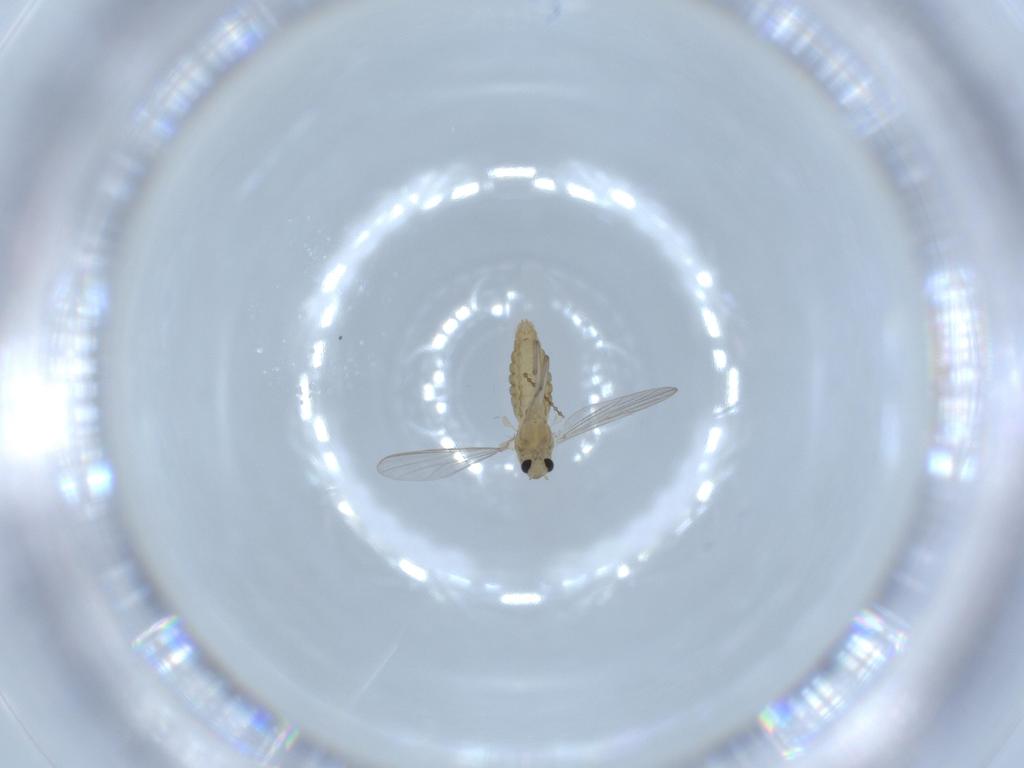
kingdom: Animalia
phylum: Arthropoda
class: Insecta
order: Diptera
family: Chironomidae
